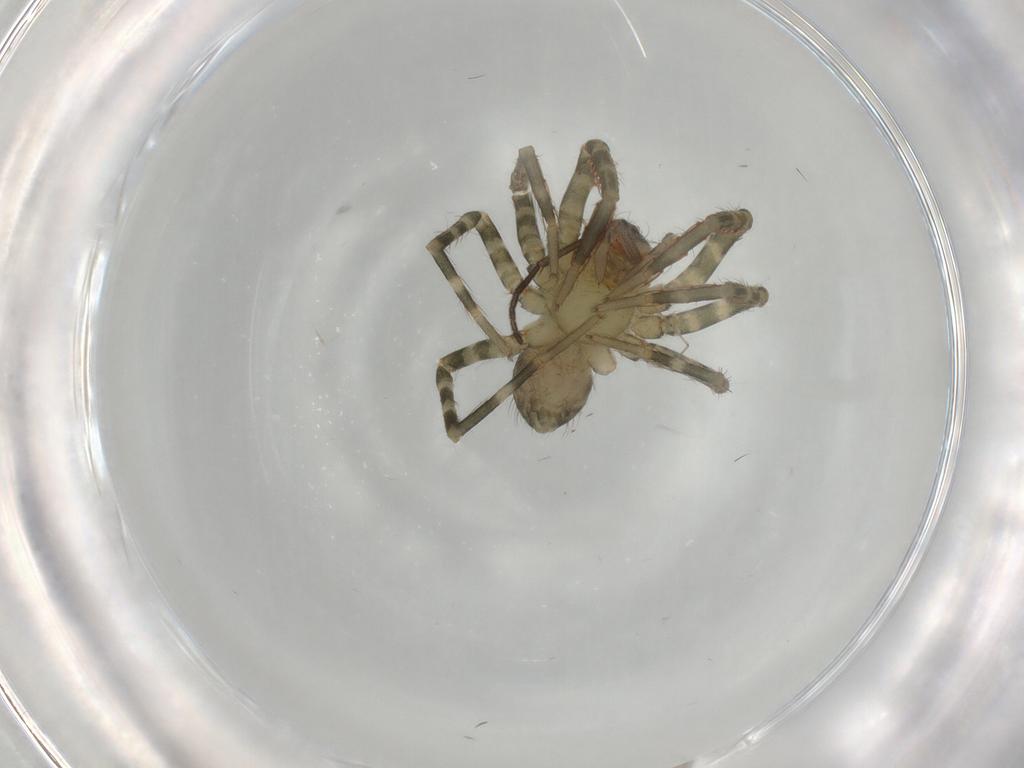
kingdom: Animalia
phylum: Arthropoda
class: Arachnida
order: Araneae
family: Ctenidae
